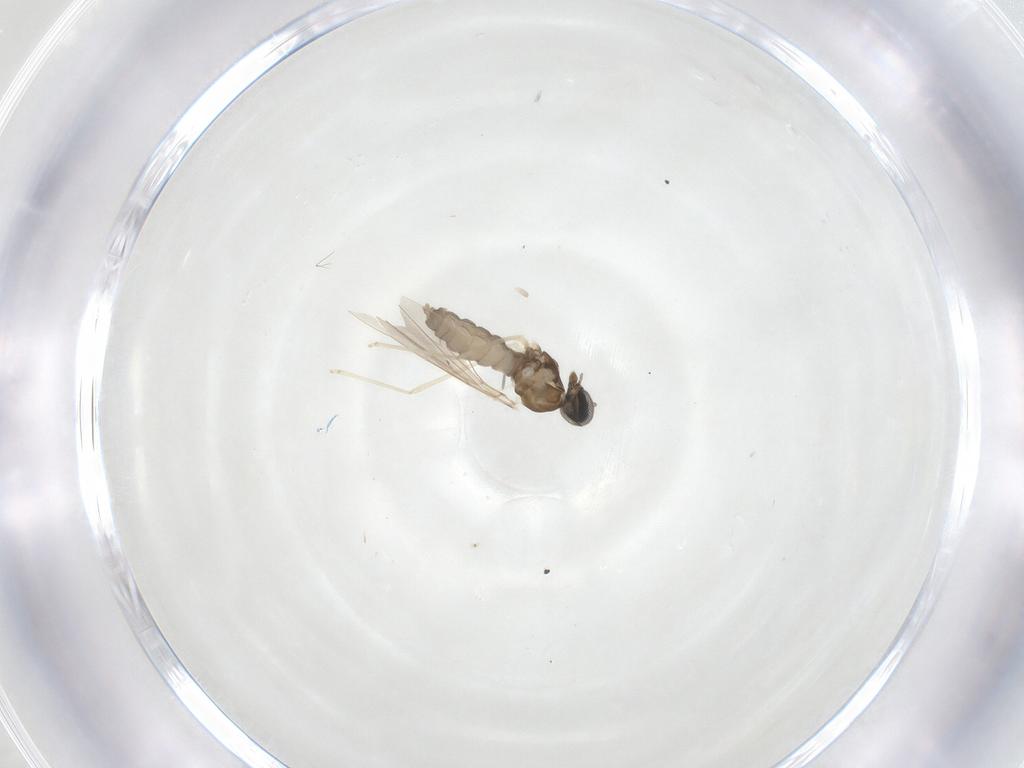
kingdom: Animalia
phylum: Arthropoda
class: Insecta
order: Diptera
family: Cecidomyiidae
